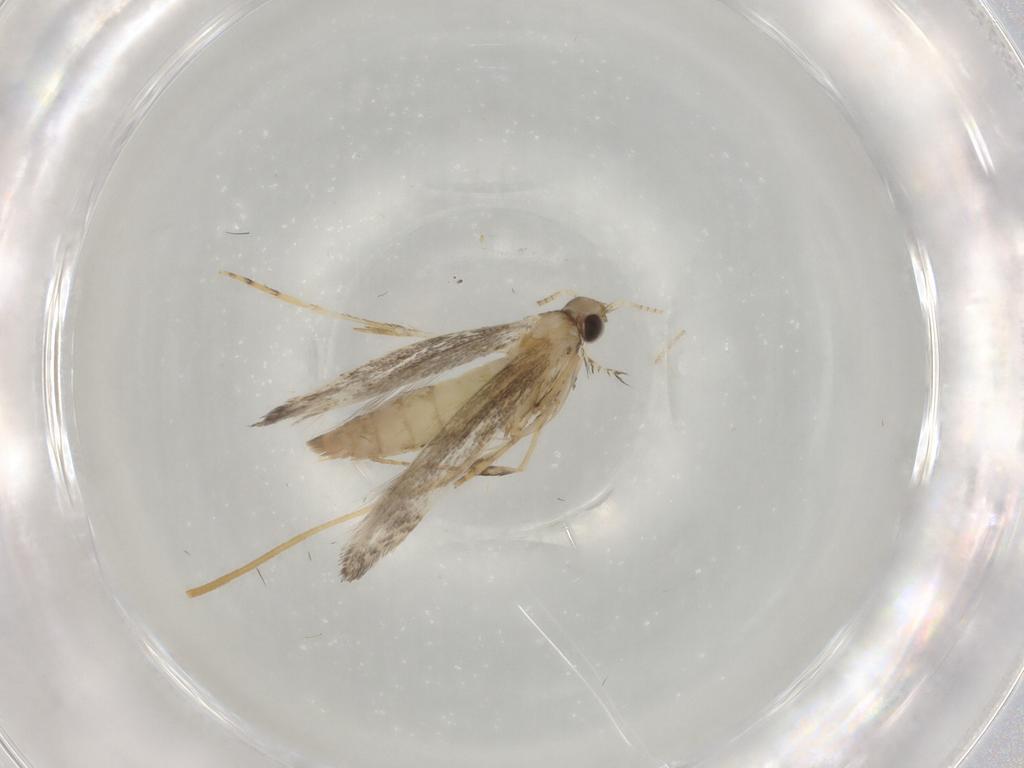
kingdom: Animalia
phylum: Arthropoda
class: Insecta
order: Lepidoptera
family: Gracillariidae
